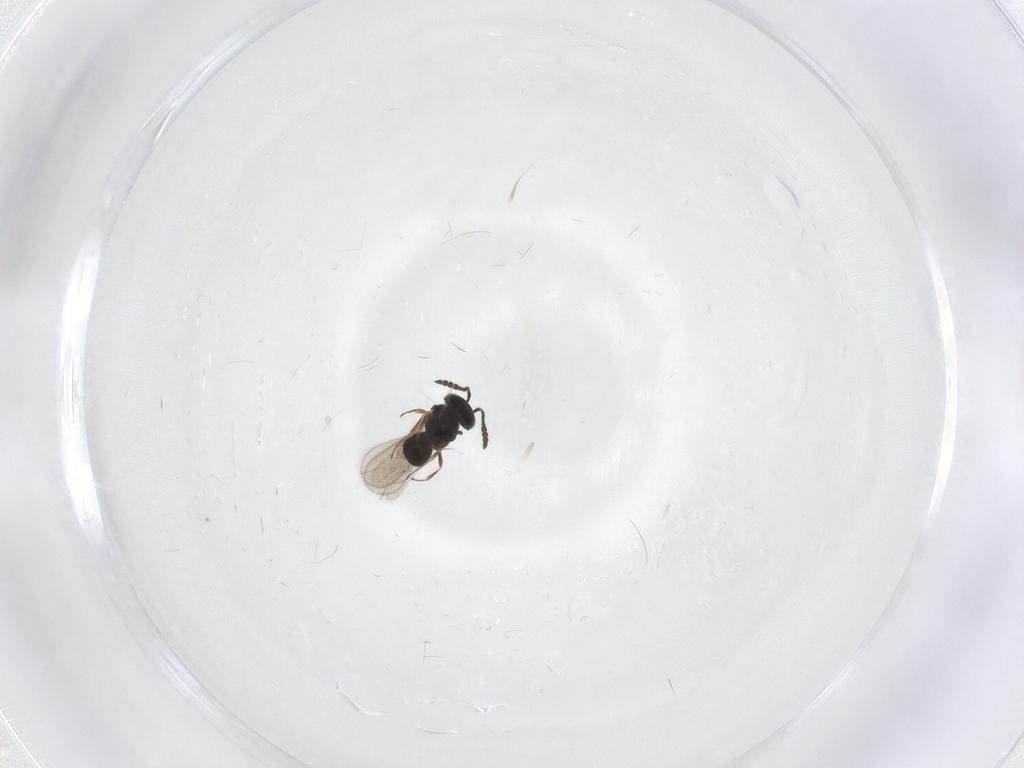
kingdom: Animalia
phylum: Arthropoda
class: Insecta
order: Hymenoptera
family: Scelionidae
